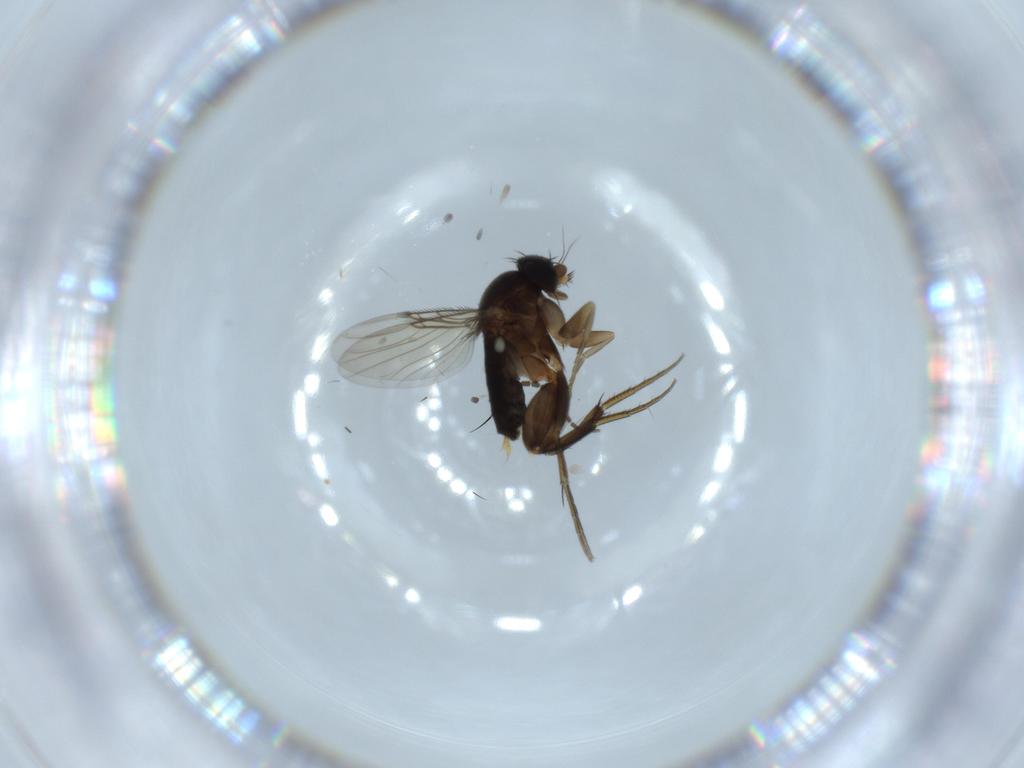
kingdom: Animalia
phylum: Arthropoda
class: Insecta
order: Diptera
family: Phoridae
